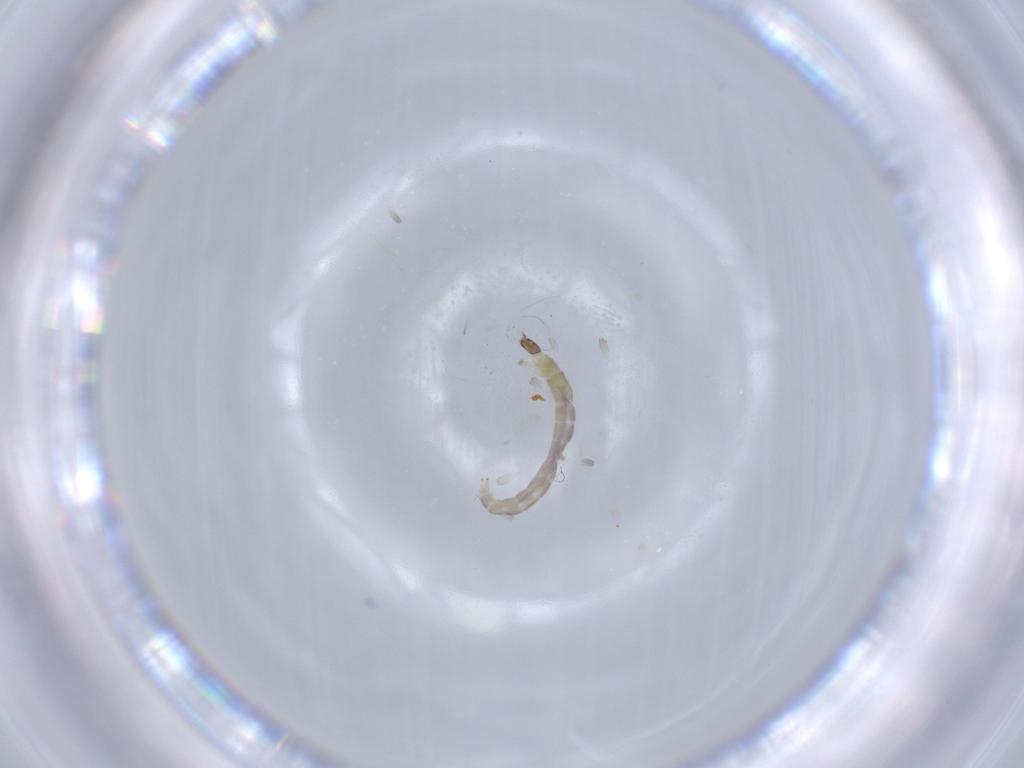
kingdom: Animalia
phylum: Arthropoda
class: Insecta
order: Diptera
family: Chironomidae
